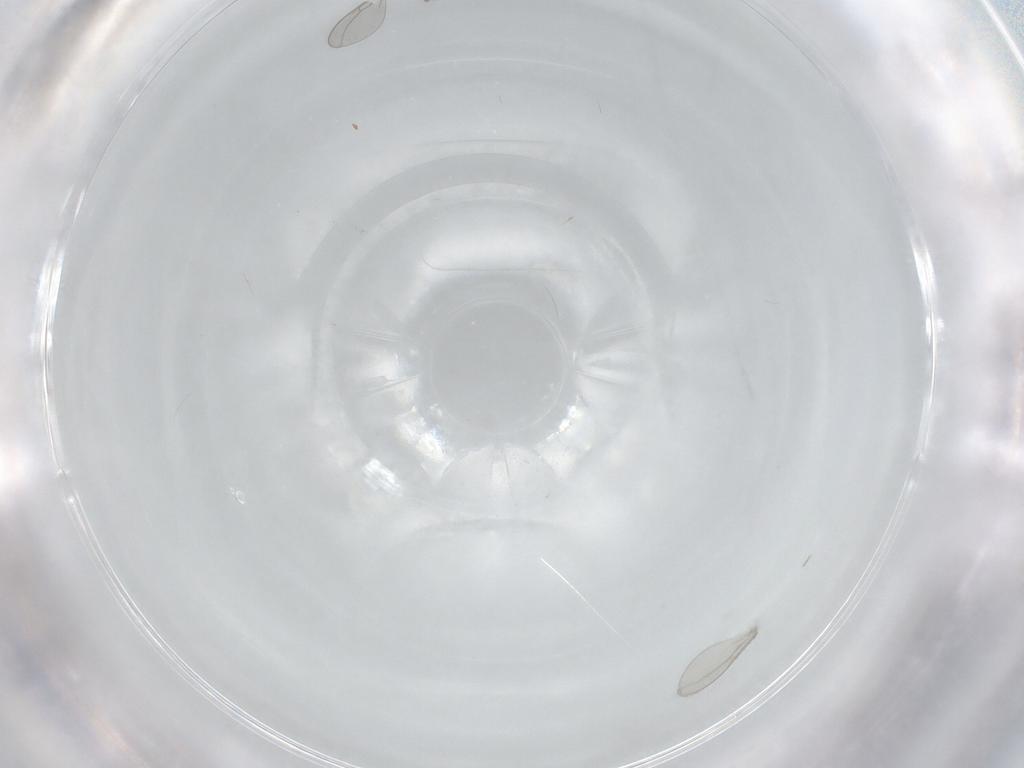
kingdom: Animalia
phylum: Arthropoda
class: Insecta
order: Diptera
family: Cecidomyiidae
